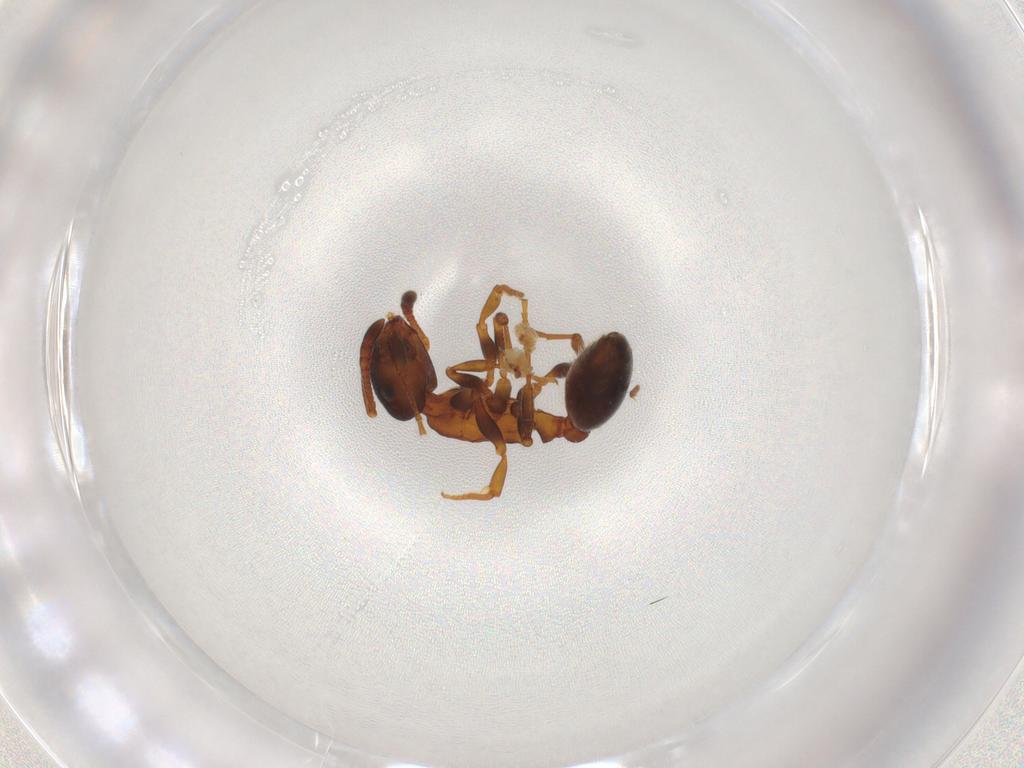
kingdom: Animalia
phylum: Arthropoda
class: Insecta
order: Hymenoptera
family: Formicidae
